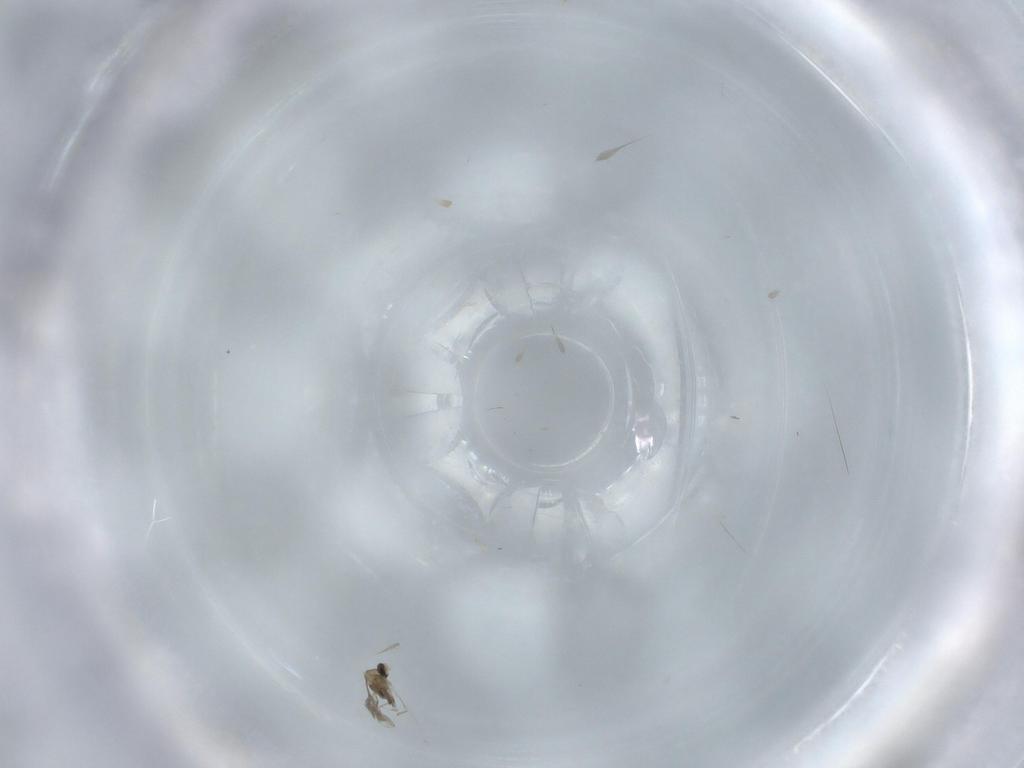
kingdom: Animalia
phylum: Arthropoda
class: Insecta
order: Diptera
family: Cecidomyiidae
